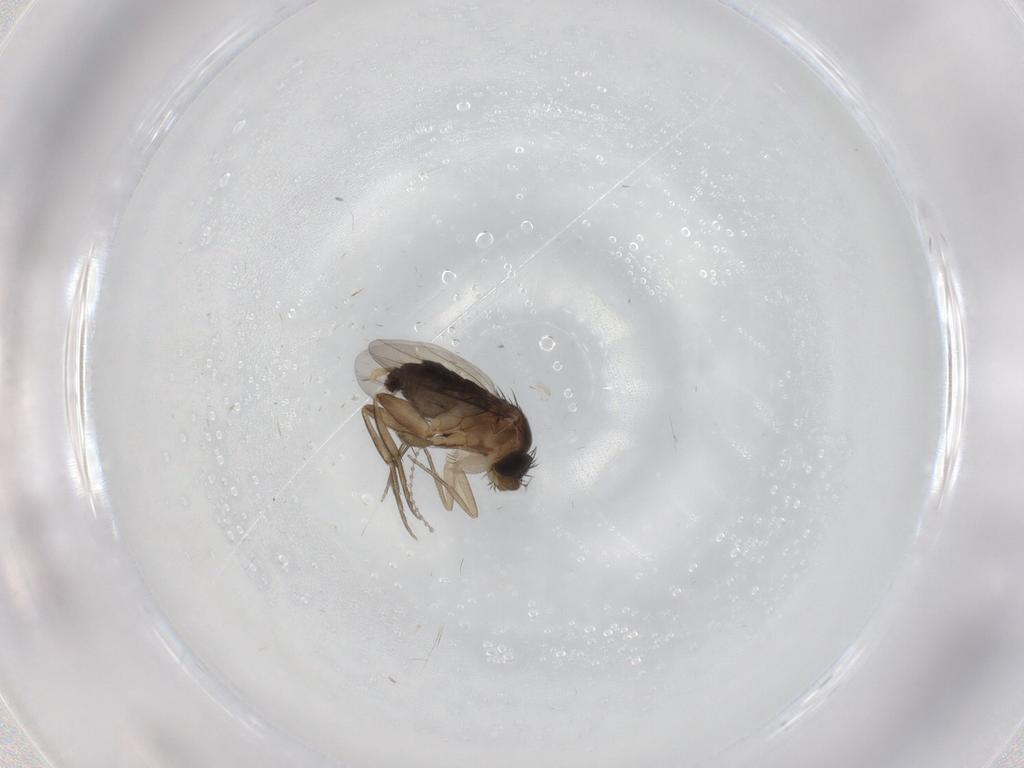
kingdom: Animalia
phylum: Arthropoda
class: Insecta
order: Diptera
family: Phoridae
